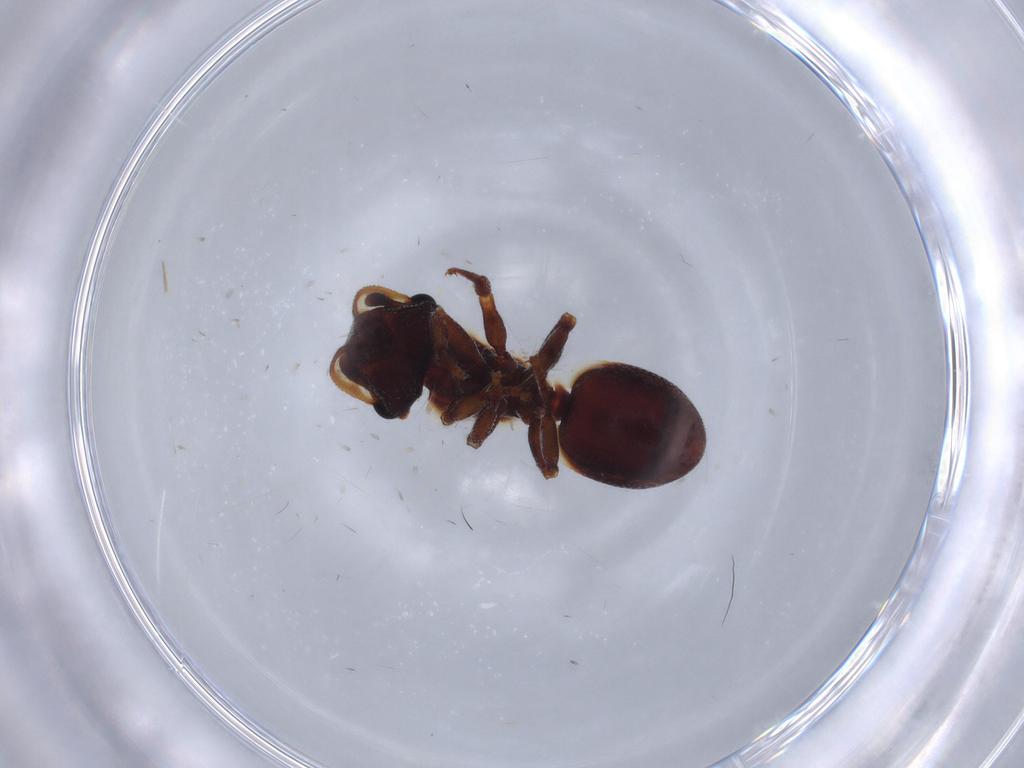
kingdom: Animalia
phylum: Arthropoda
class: Insecta
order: Hymenoptera
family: Formicidae
